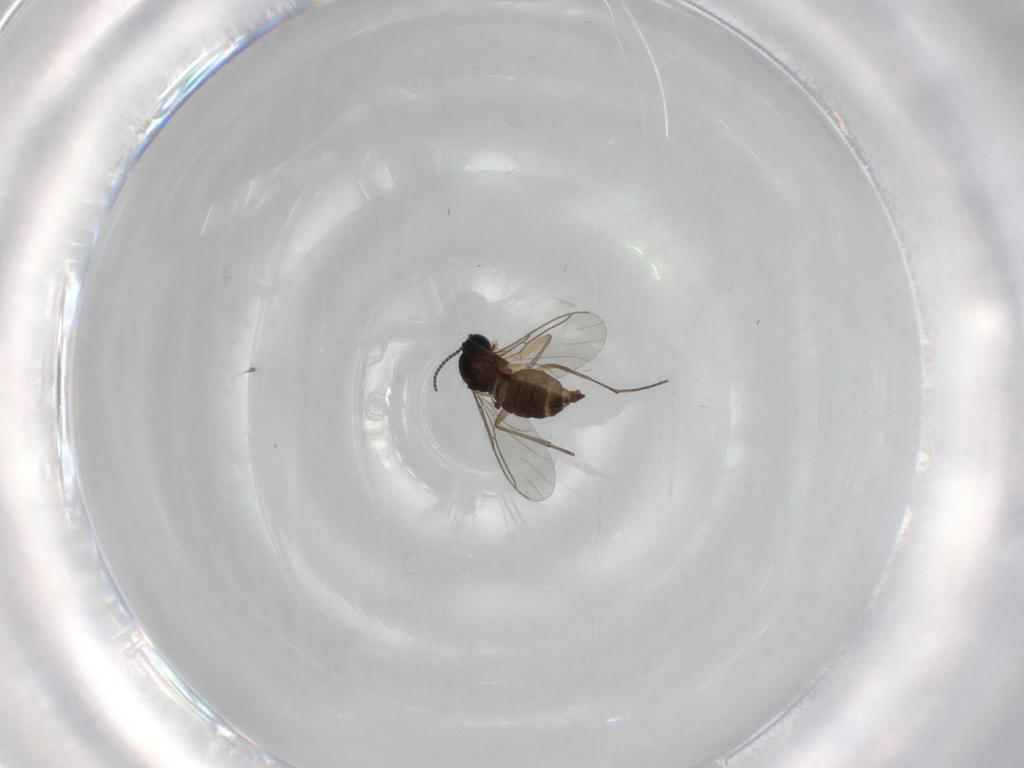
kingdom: Animalia
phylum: Arthropoda
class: Insecta
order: Diptera
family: Sciaridae
